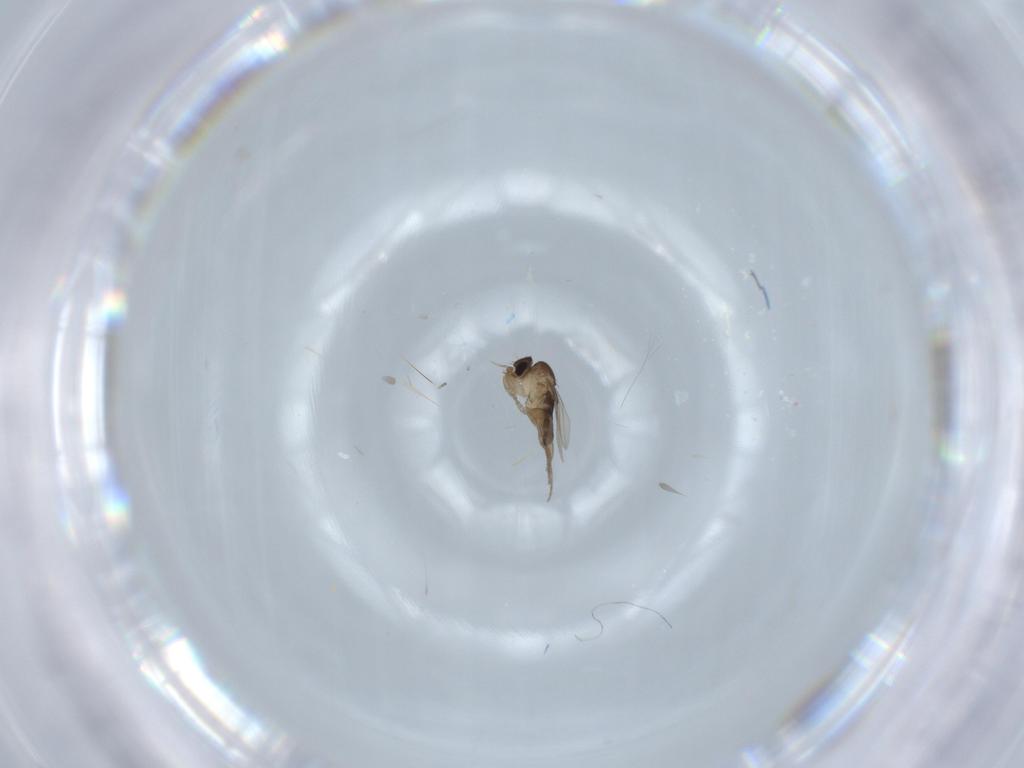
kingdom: Animalia
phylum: Arthropoda
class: Insecta
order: Diptera
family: Phoridae
